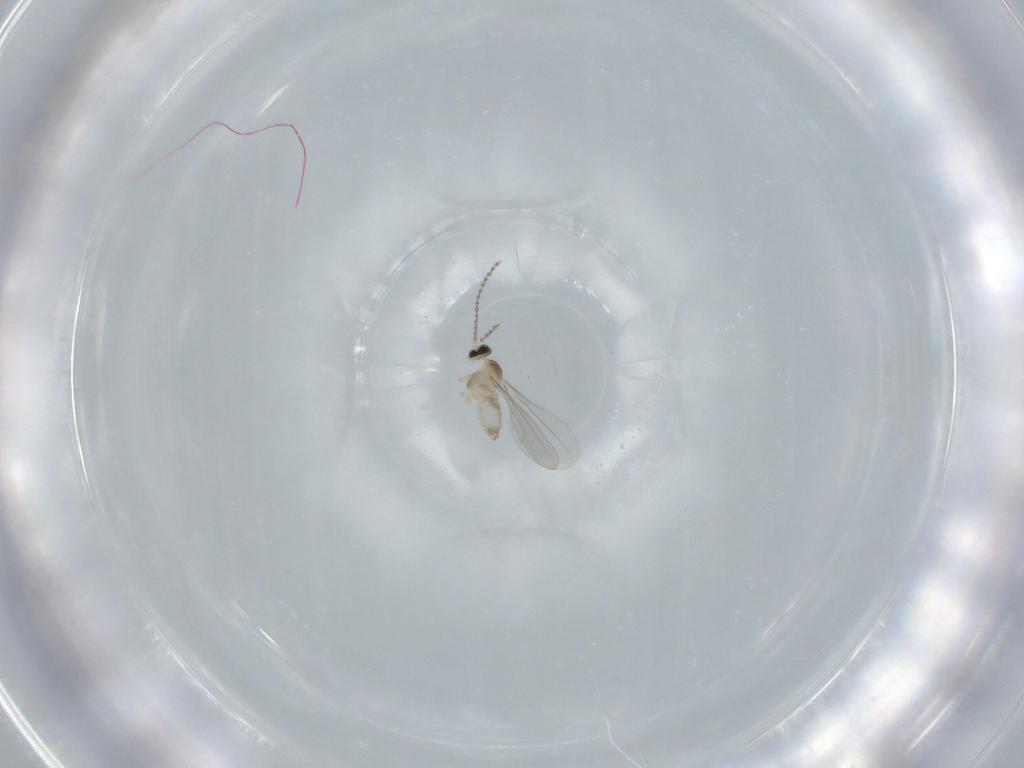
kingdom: Animalia
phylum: Arthropoda
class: Insecta
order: Diptera
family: Cecidomyiidae
